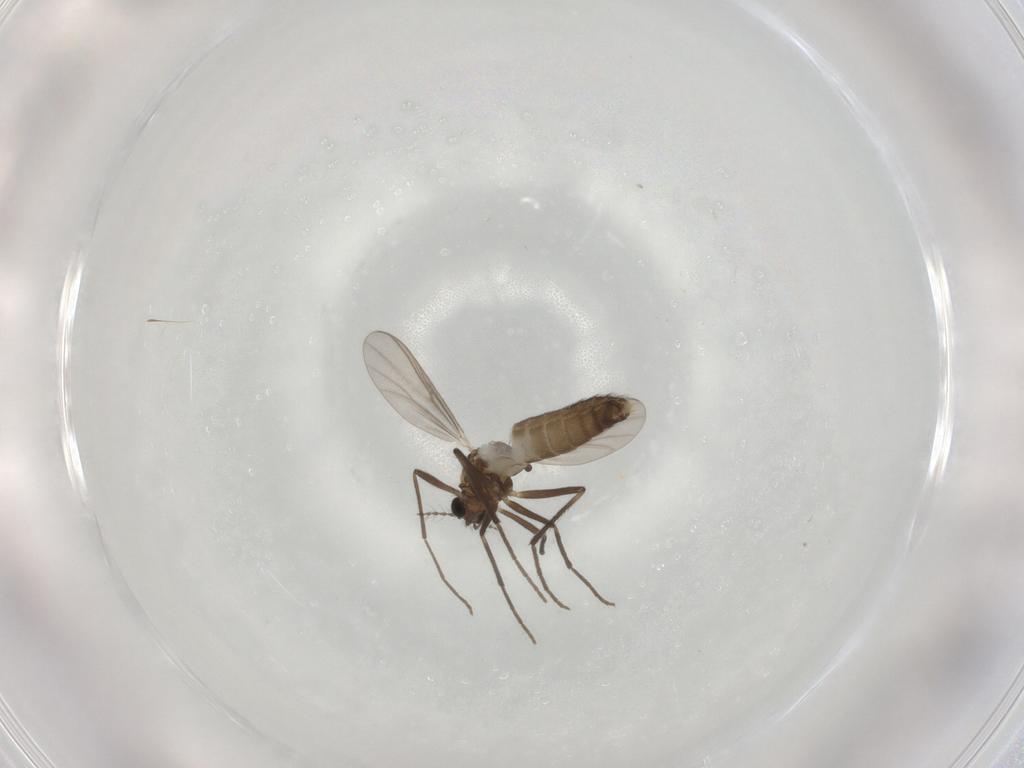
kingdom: Animalia
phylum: Arthropoda
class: Insecta
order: Diptera
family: Chironomidae
